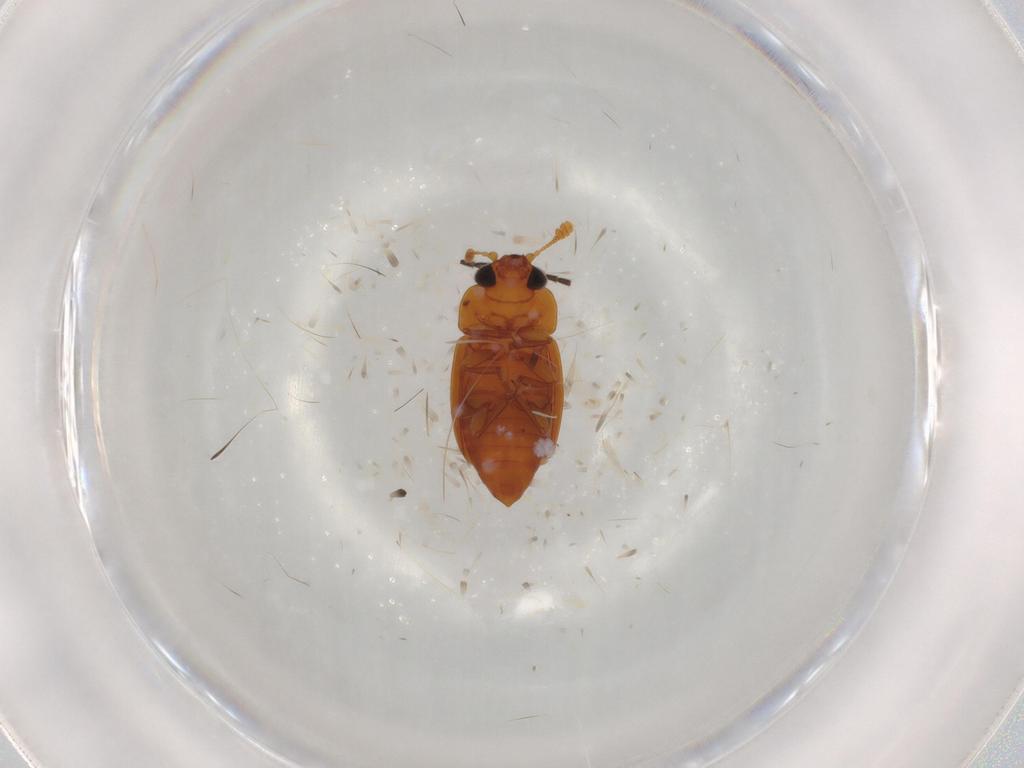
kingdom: Animalia
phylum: Arthropoda
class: Insecta
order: Coleoptera
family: Nitidulidae
